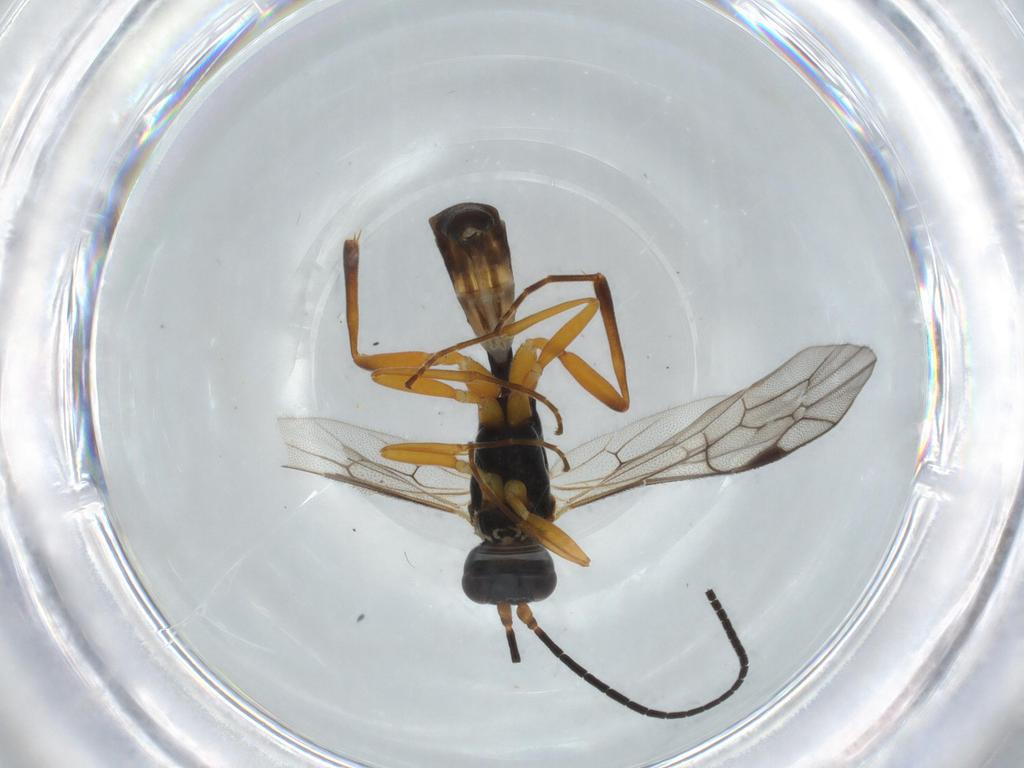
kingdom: Animalia
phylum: Arthropoda
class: Insecta
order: Hymenoptera
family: Ichneumonidae
